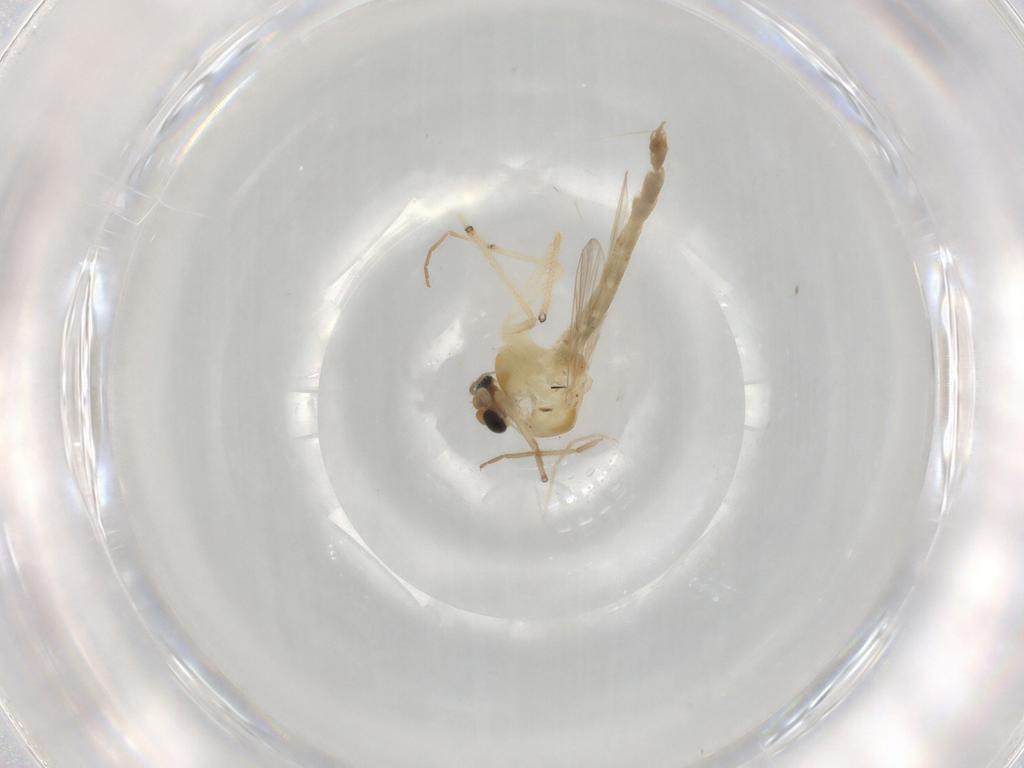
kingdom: Animalia
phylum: Arthropoda
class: Insecta
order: Diptera
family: Chironomidae
